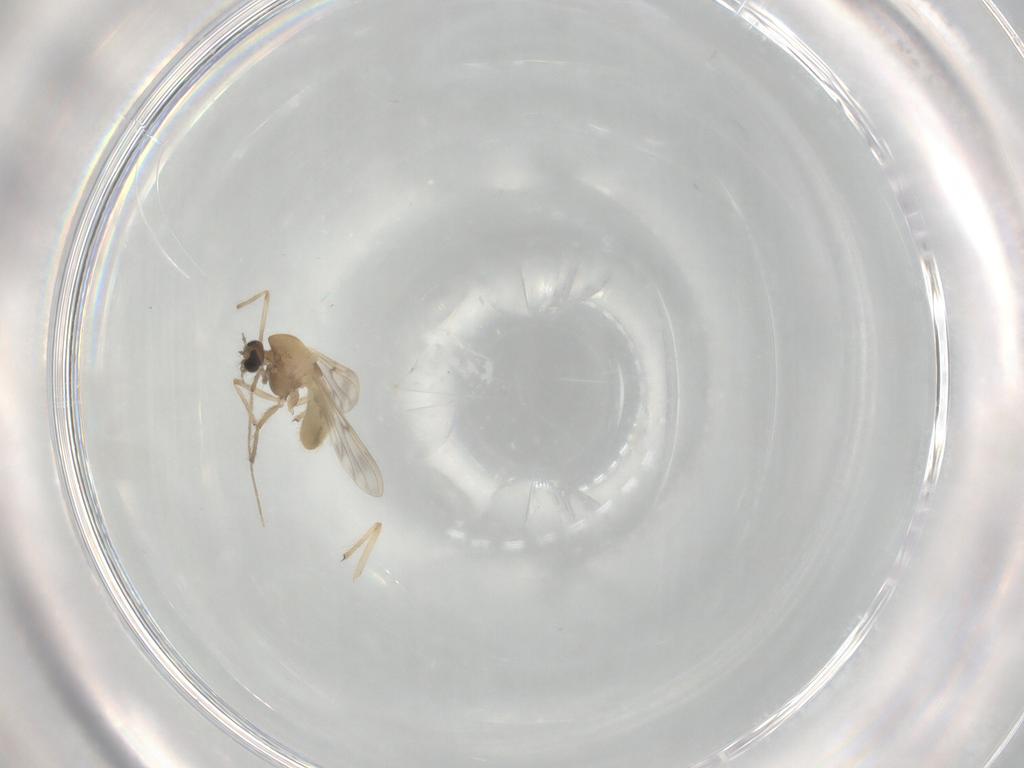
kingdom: Animalia
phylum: Arthropoda
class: Insecta
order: Diptera
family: Chironomidae
